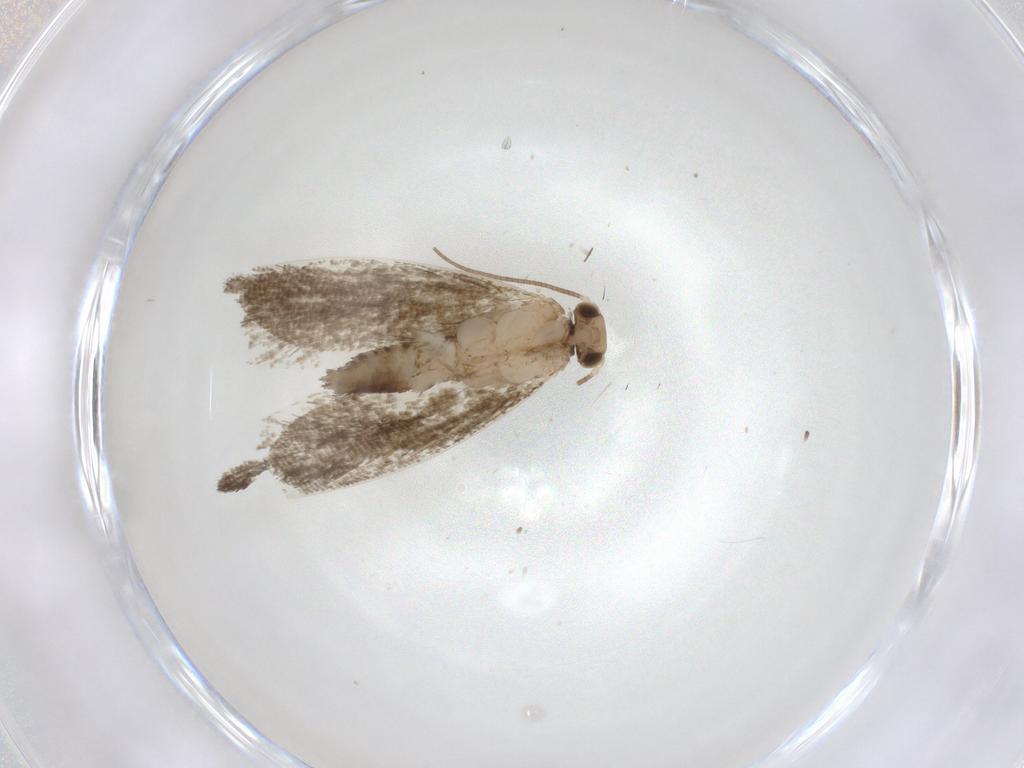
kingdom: Animalia
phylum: Arthropoda
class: Insecta
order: Lepidoptera
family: Tineidae
